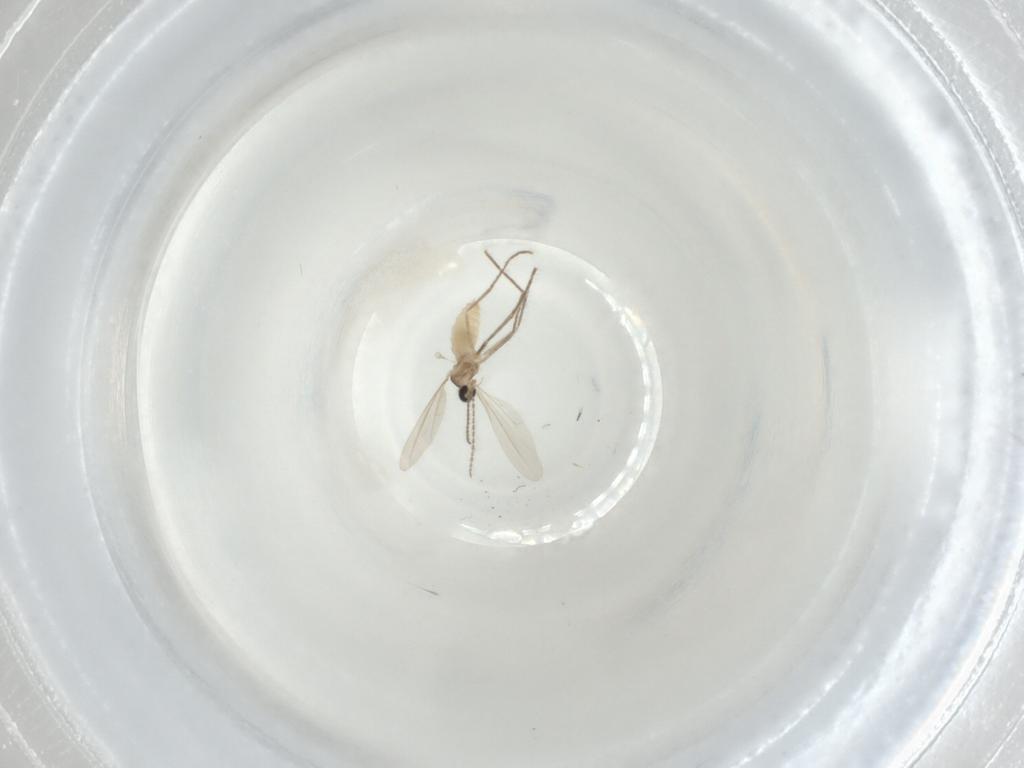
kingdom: Animalia
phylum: Arthropoda
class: Insecta
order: Diptera
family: Cecidomyiidae
